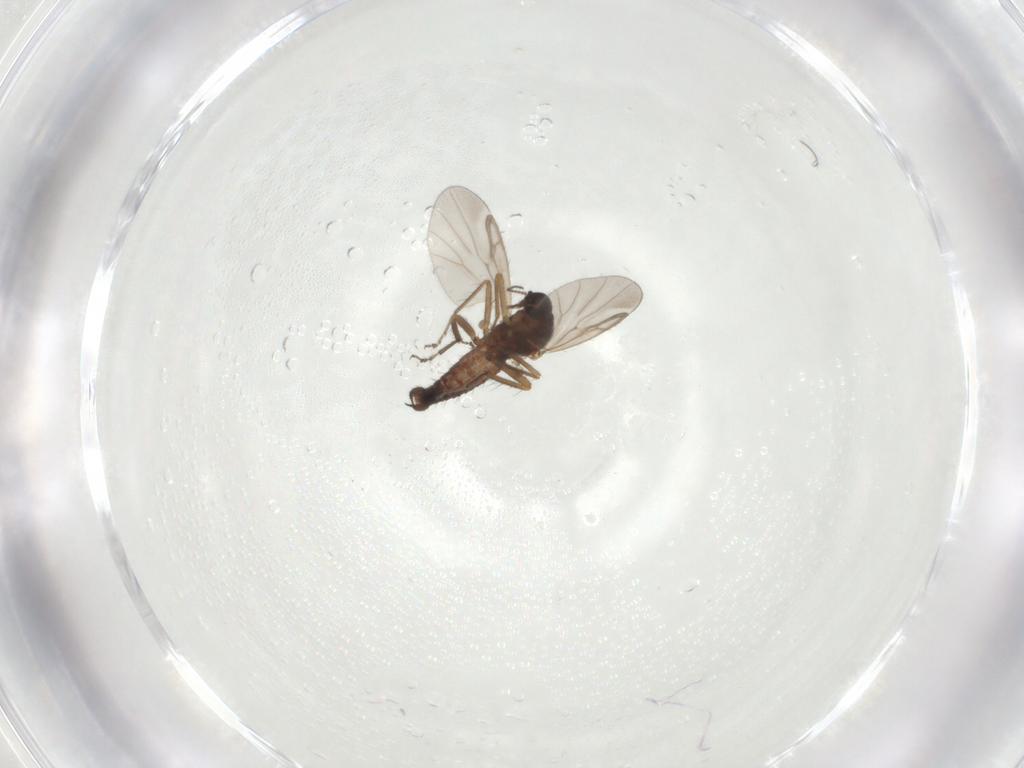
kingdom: Animalia
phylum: Arthropoda
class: Insecta
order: Diptera
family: Ceratopogonidae
